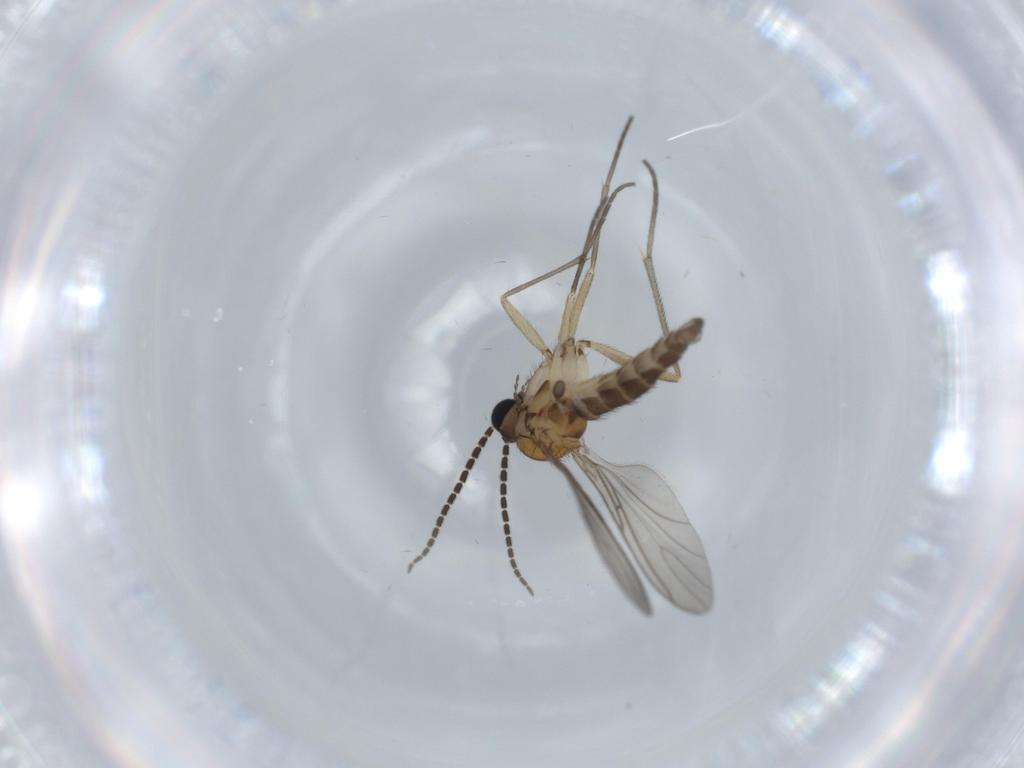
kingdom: Animalia
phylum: Arthropoda
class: Insecta
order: Diptera
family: Sciaridae
